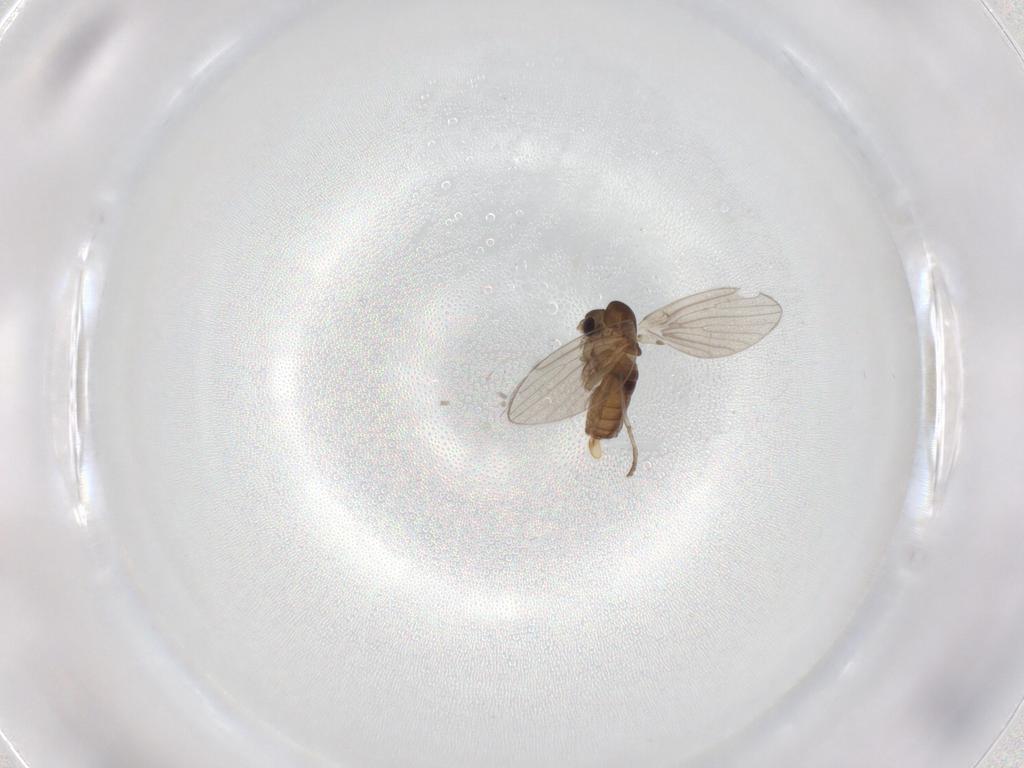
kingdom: Animalia
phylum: Arthropoda
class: Insecta
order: Diptera
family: Psychodidae
